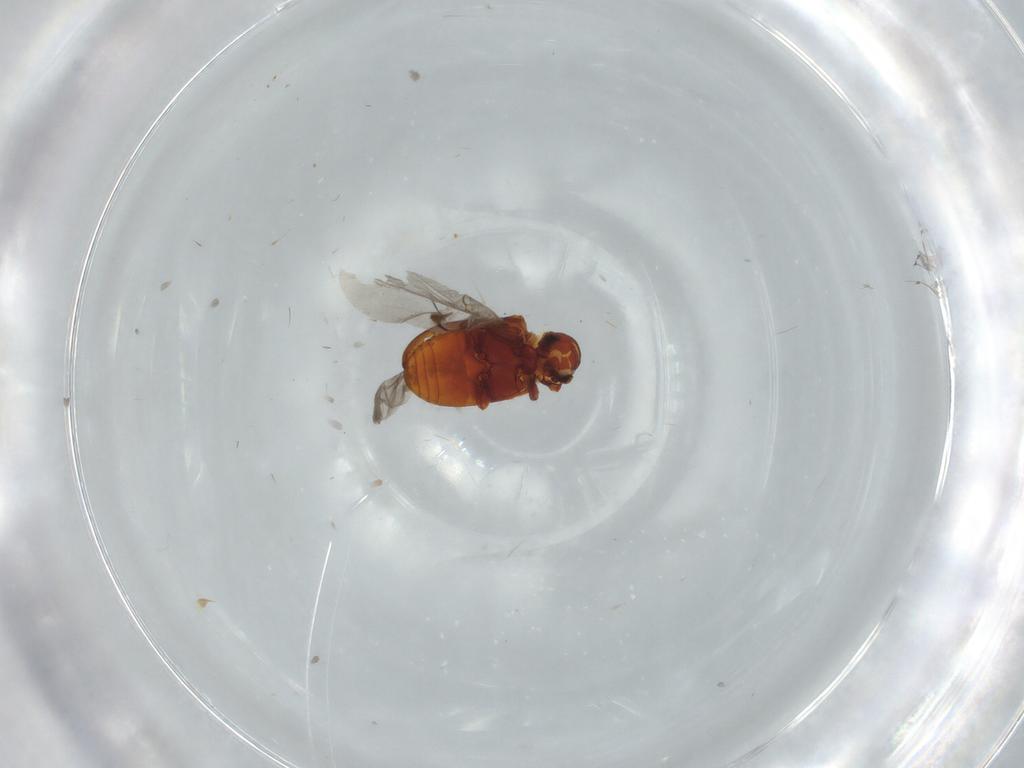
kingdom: Animalia
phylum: Arthropoda
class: Insecta
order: Coleoptera
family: Ptinidae
